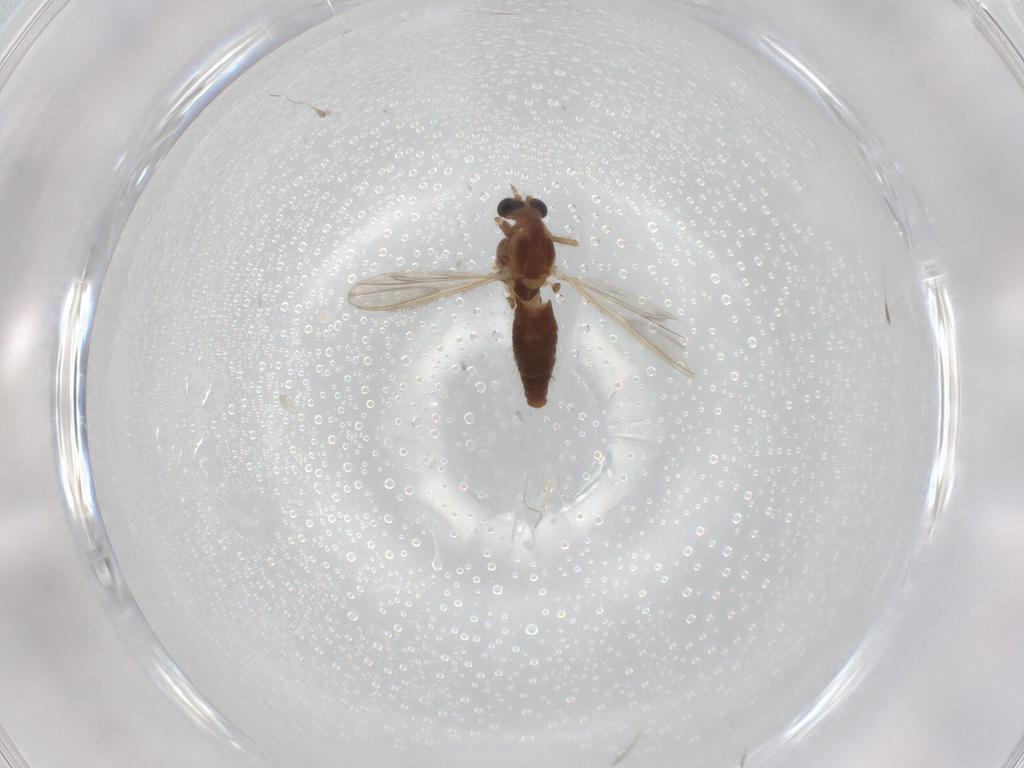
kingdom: Animalia
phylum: Arthropoda
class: Insecta
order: Diptera
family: Chironomidae
